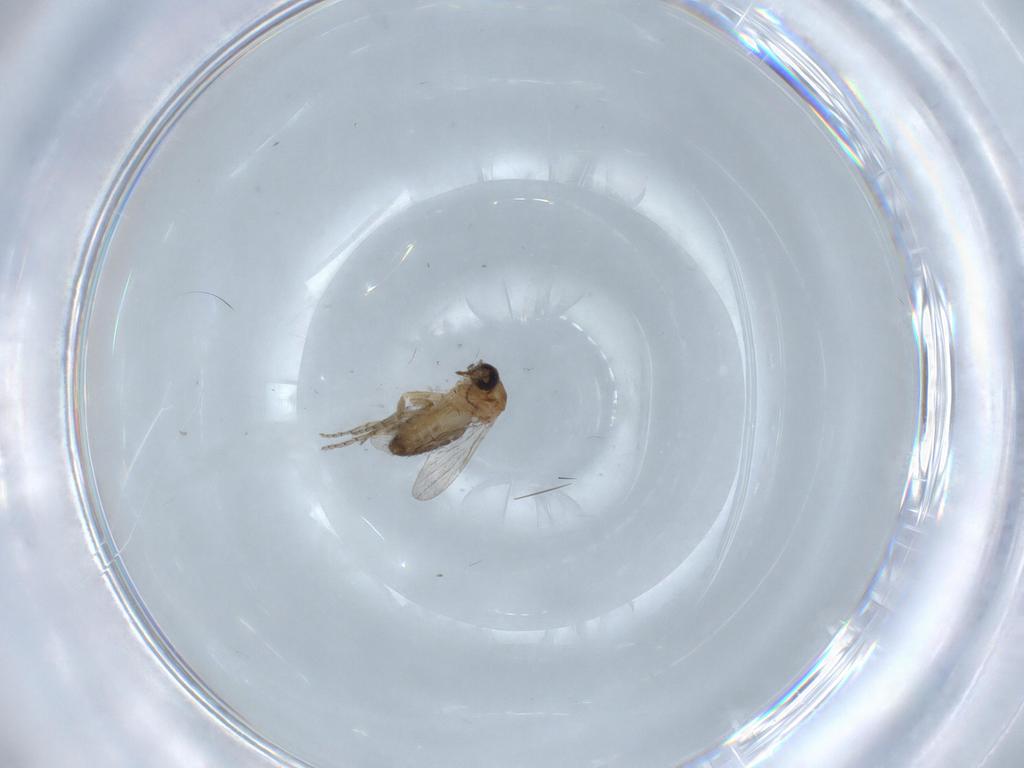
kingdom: Animalia
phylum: Arthropoda
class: Insecta
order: Diptera
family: Ceratopogonidae
